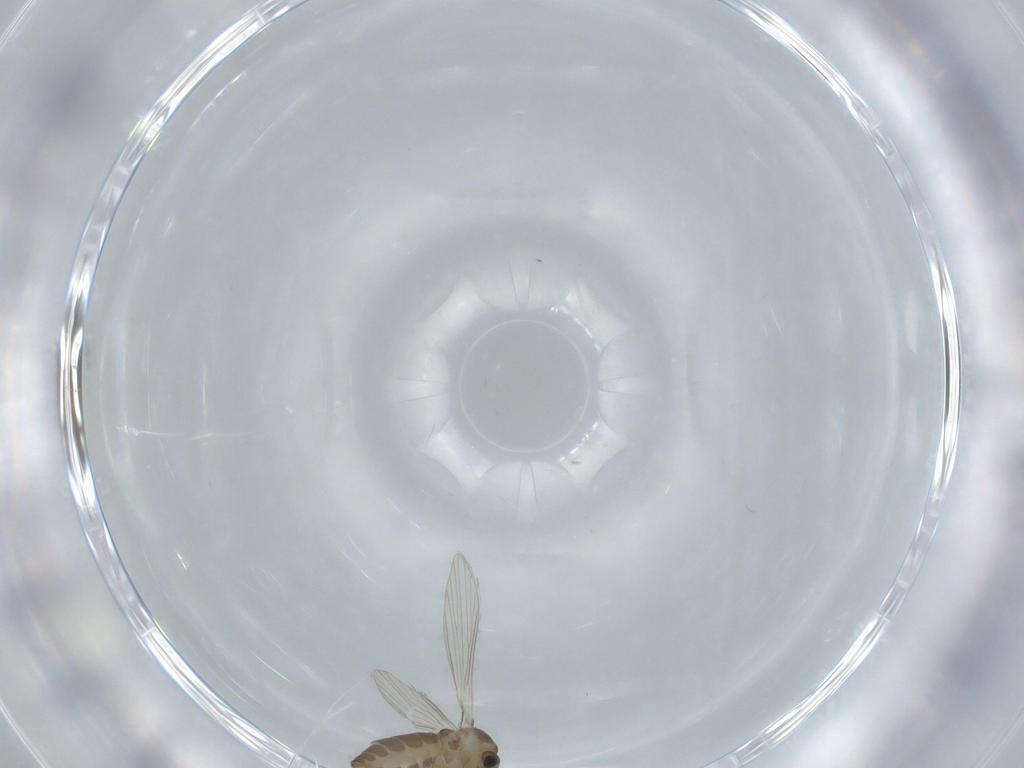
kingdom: Animalia
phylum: Arthropoda
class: Insecta
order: Diptera
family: Psychodidae
